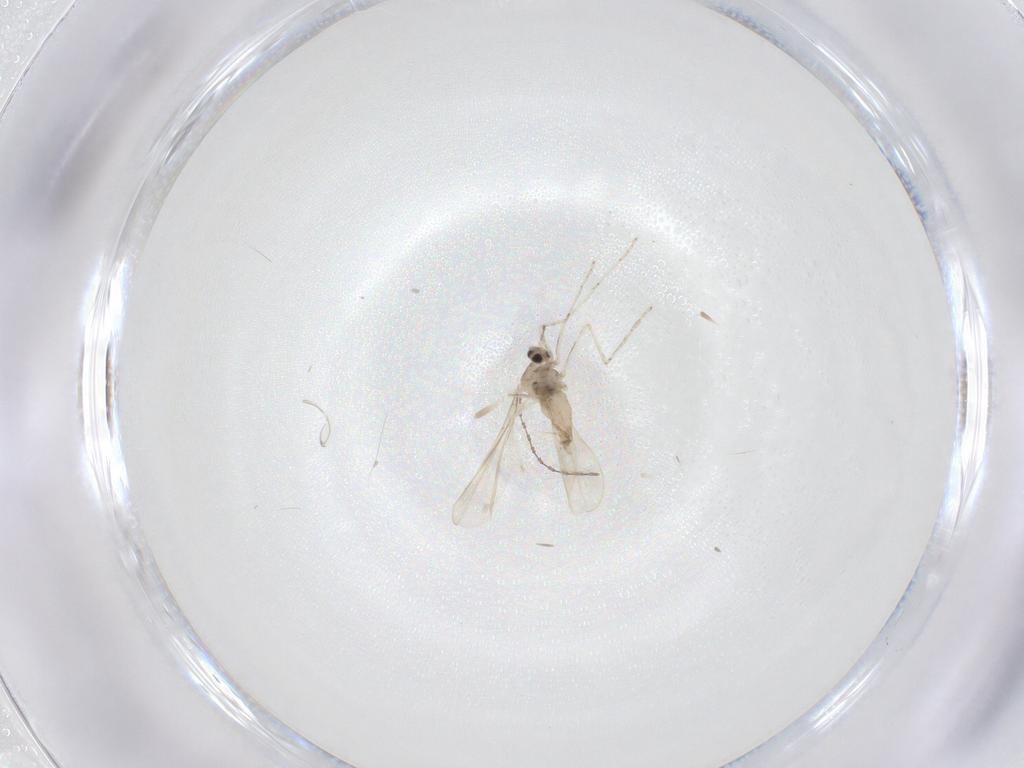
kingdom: Animalia
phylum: Arthropoda
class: Insecta
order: Diptera
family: Cecidomyiidae
